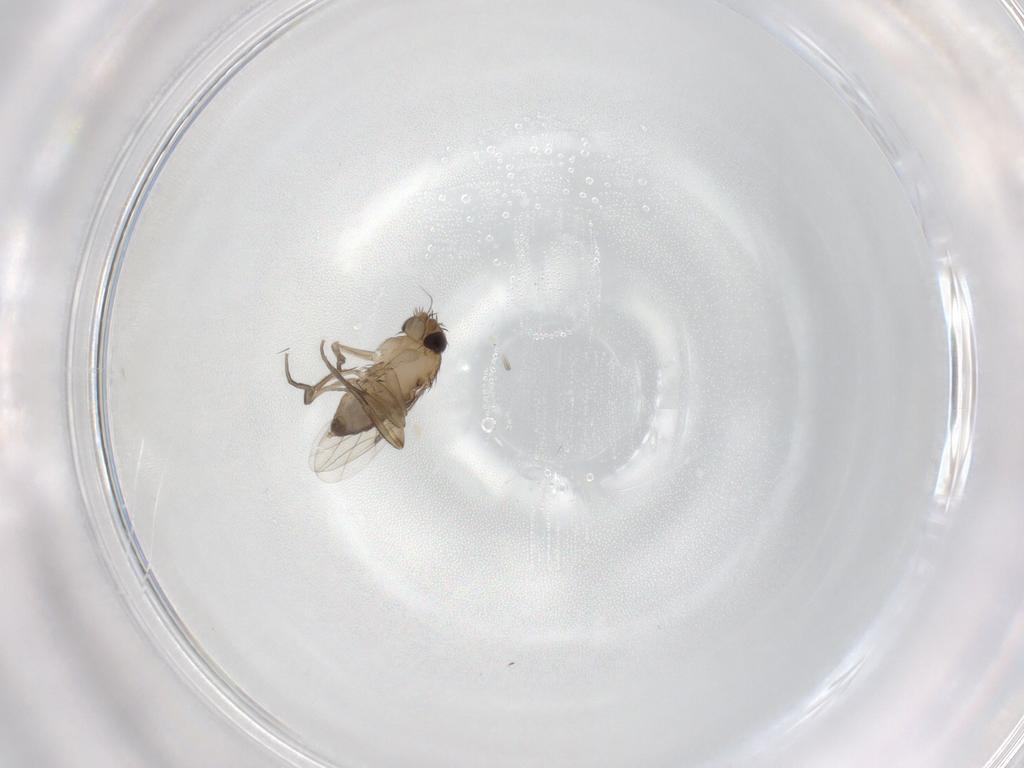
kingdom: Animalia
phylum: Arthropoda
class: Insecta
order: Diptera
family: Phoridae
